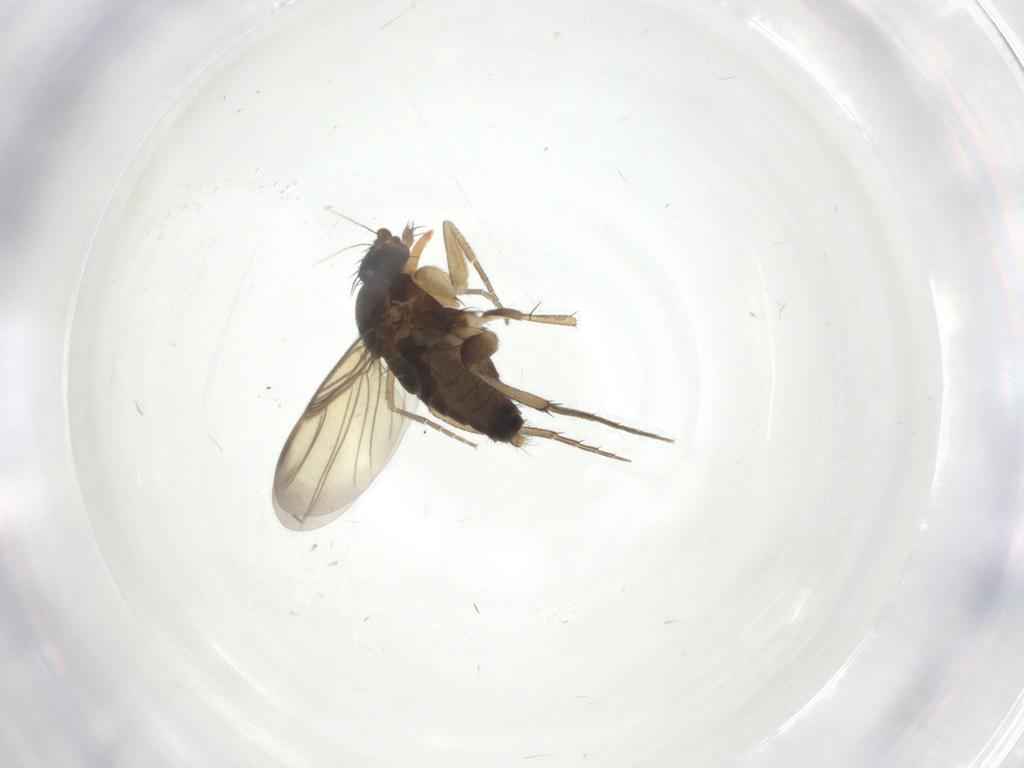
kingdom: Animalia
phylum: Arthropoda
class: Insecta
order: Diptera
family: Phoridae
